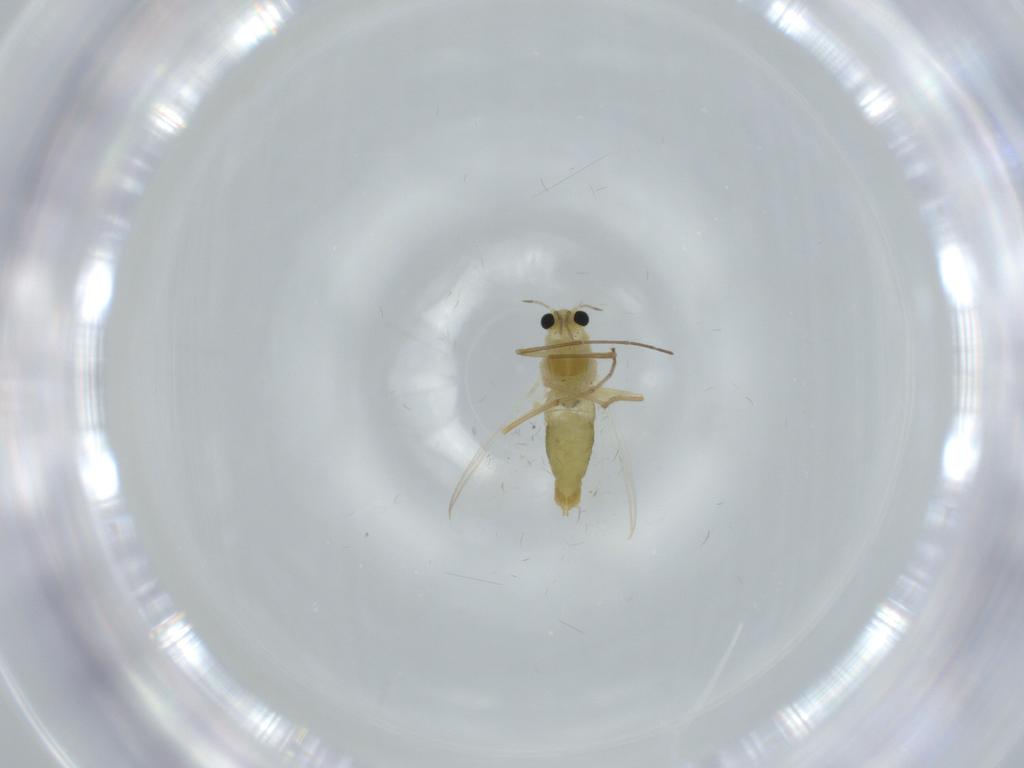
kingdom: Animalia
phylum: Arthropoda
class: Insecta
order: Diptera
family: Chironomidae
